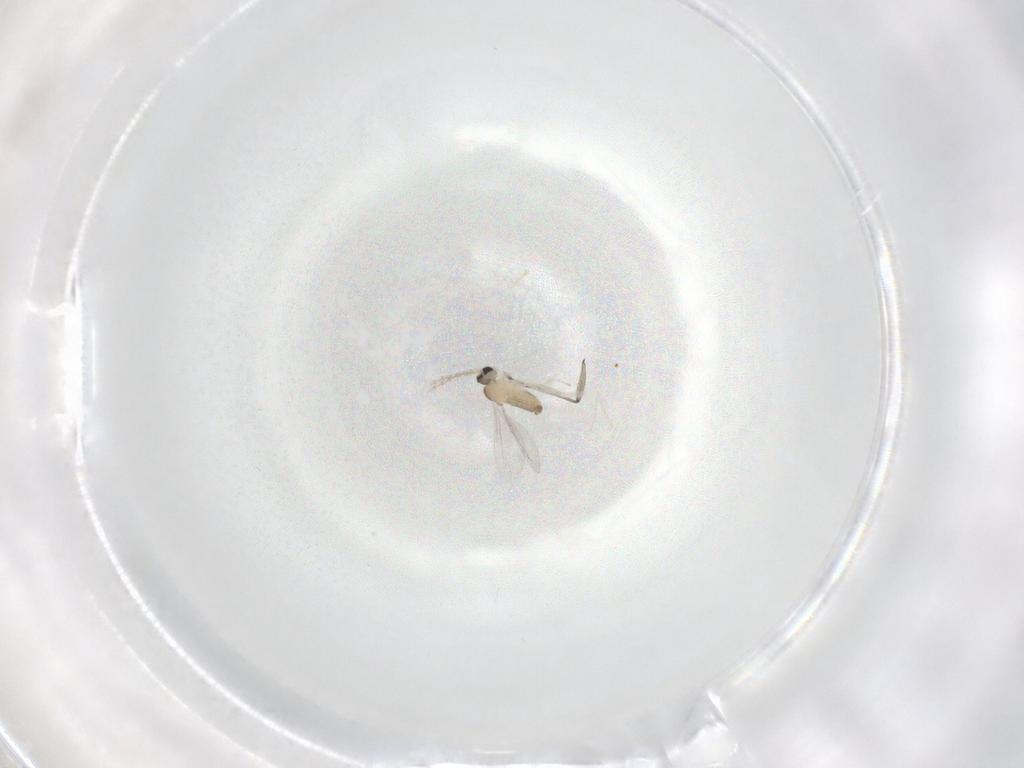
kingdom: Animalia
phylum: Arthropoda
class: Insecta
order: Diptera
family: Cecidomyiidae
